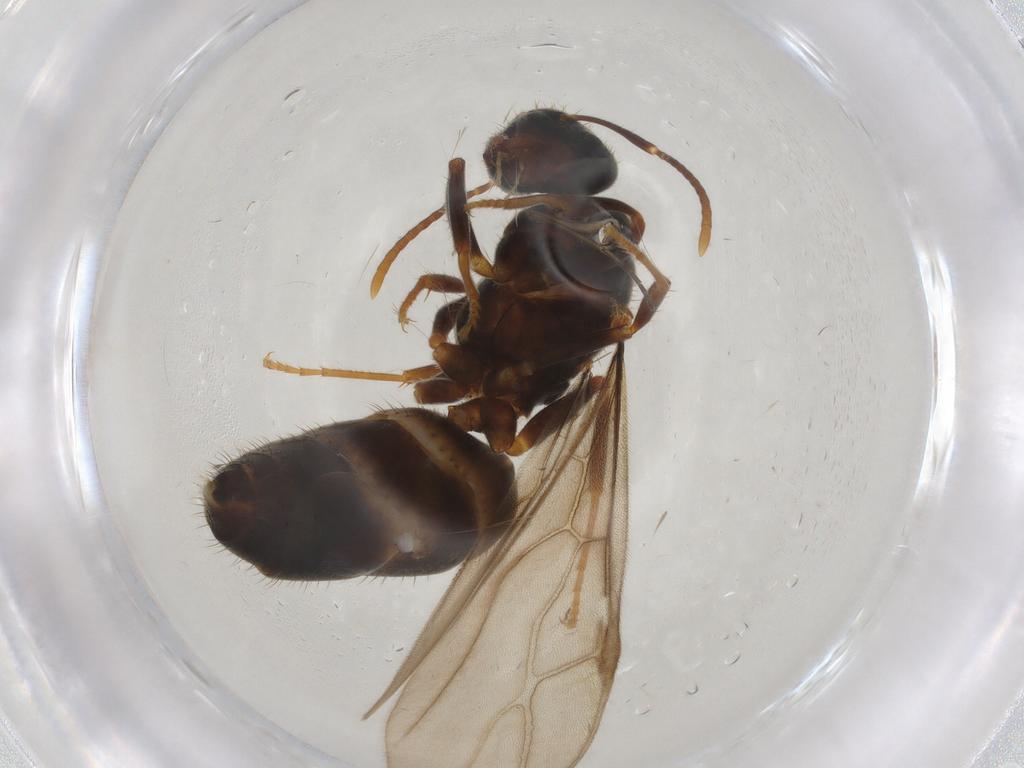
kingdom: Animalia
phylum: Arthropoda
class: Insecta
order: Hymenoptera
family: Formicidae
